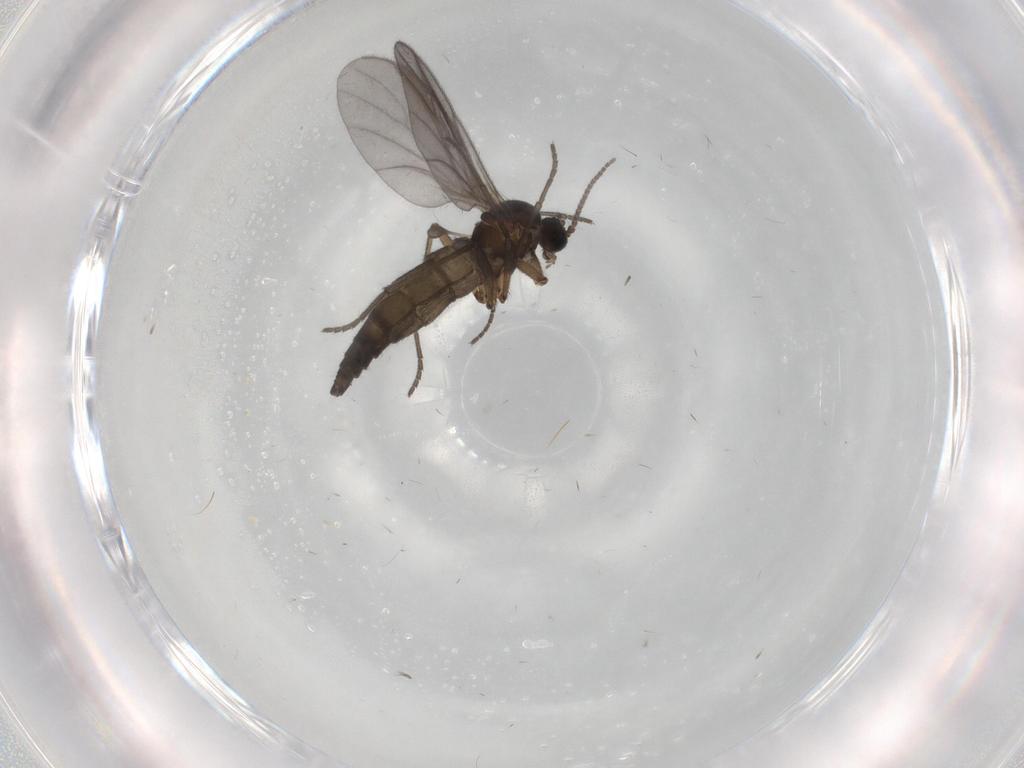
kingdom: Animalia
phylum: Arthropoda
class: Insecta
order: Diptera
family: Sciaridae
